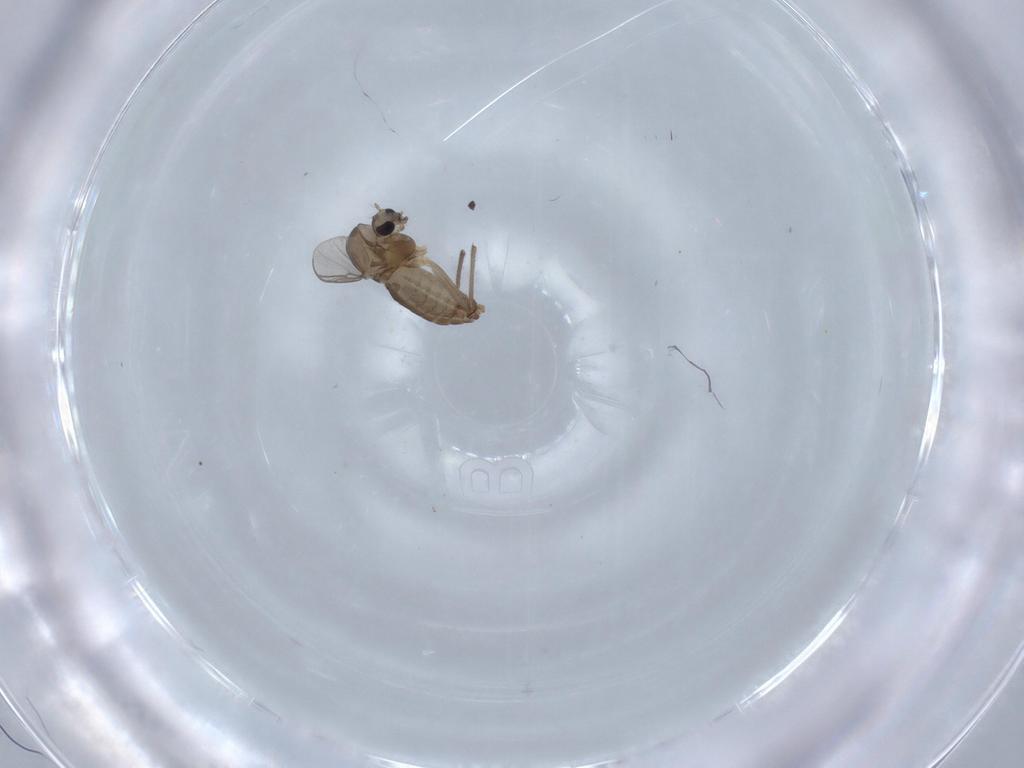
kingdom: Animalia
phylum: Arthropoda
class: Insecta
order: Diptera
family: Chironomidae
